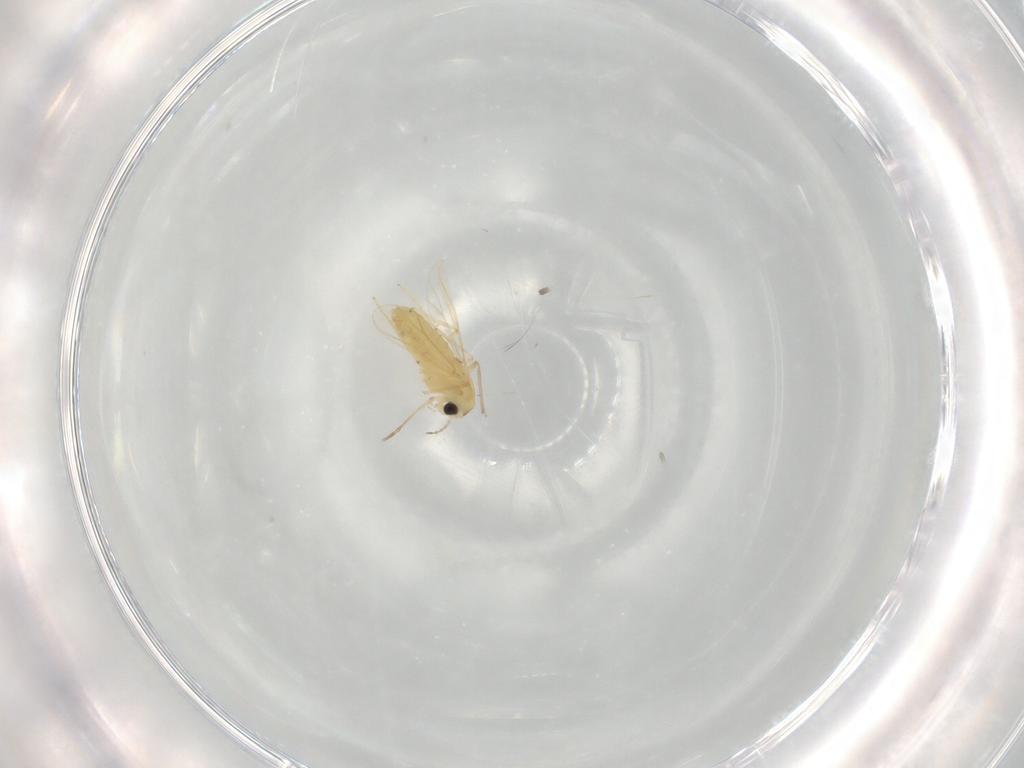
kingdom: Animalia
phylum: Arthropoda
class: Insecta
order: Diptera
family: Chironomidae
